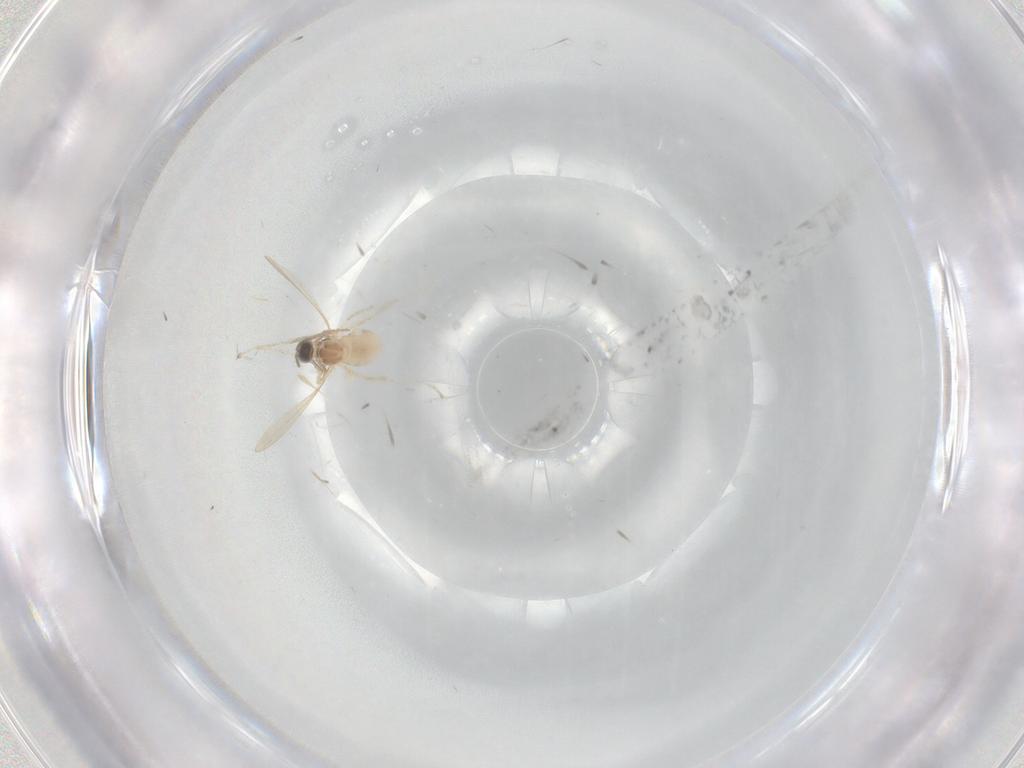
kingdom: Animalia
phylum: Arthropoda
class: Insecta
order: Diptera
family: Cecidomyiidae
